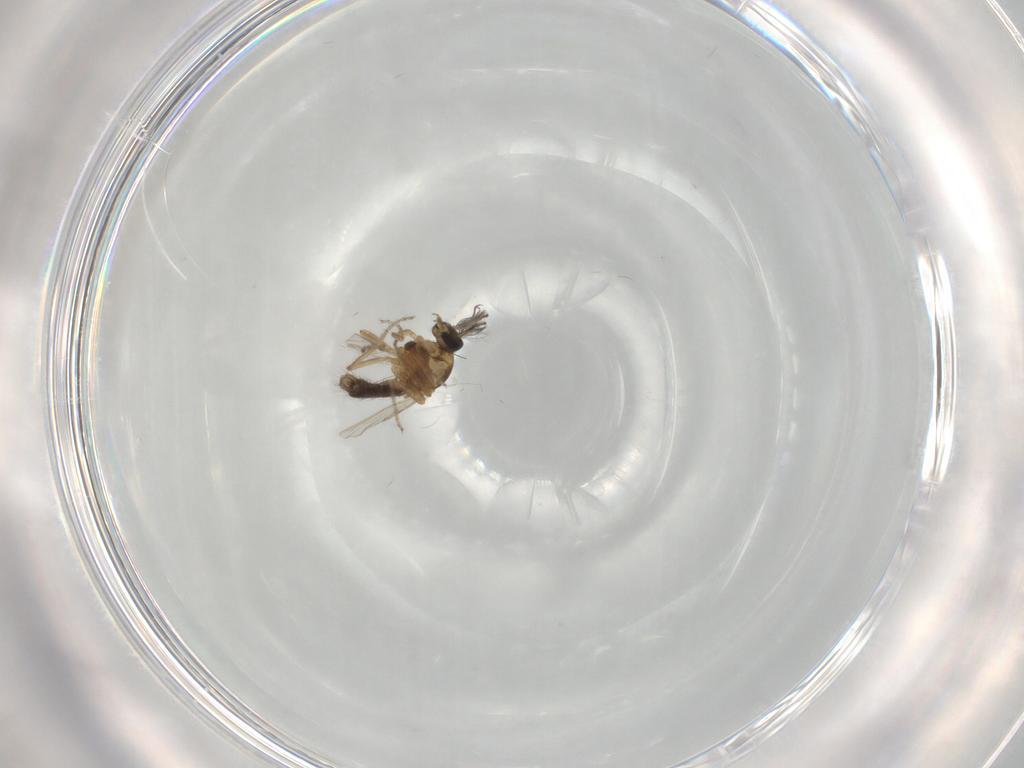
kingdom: Animalia
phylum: Arthropoda
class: Insecta
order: Diptera
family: Ceratopogonidae
